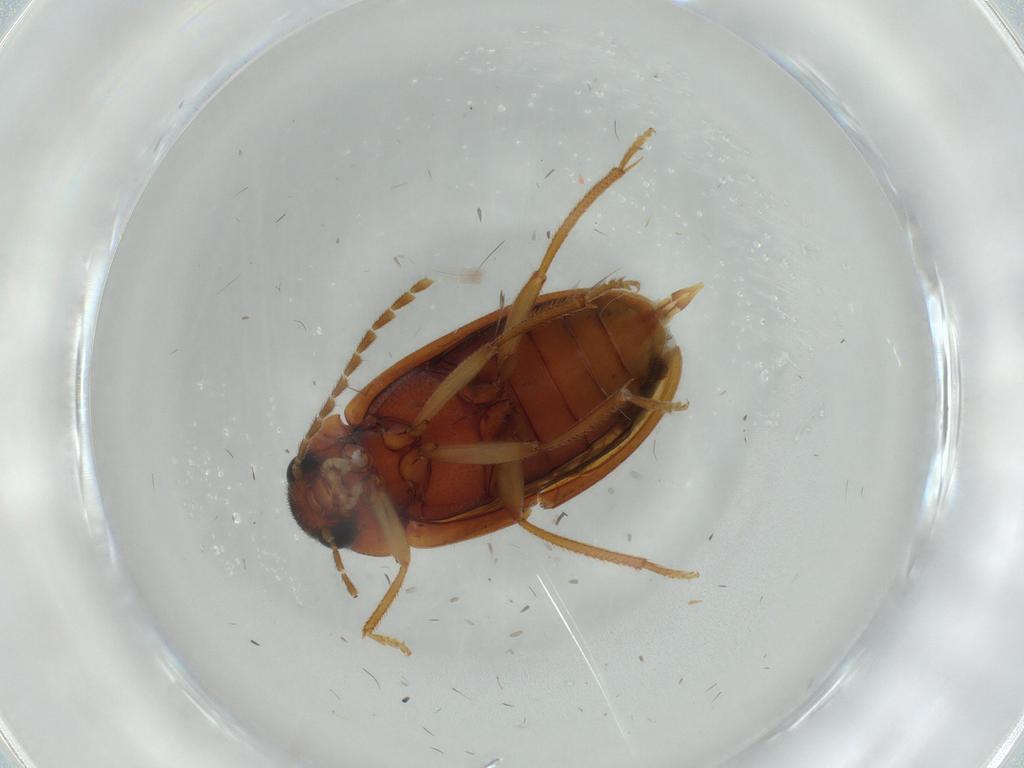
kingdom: Animalia
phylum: Arthropoda
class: Insecta
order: Coleoptera
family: Ptilodactylidae
